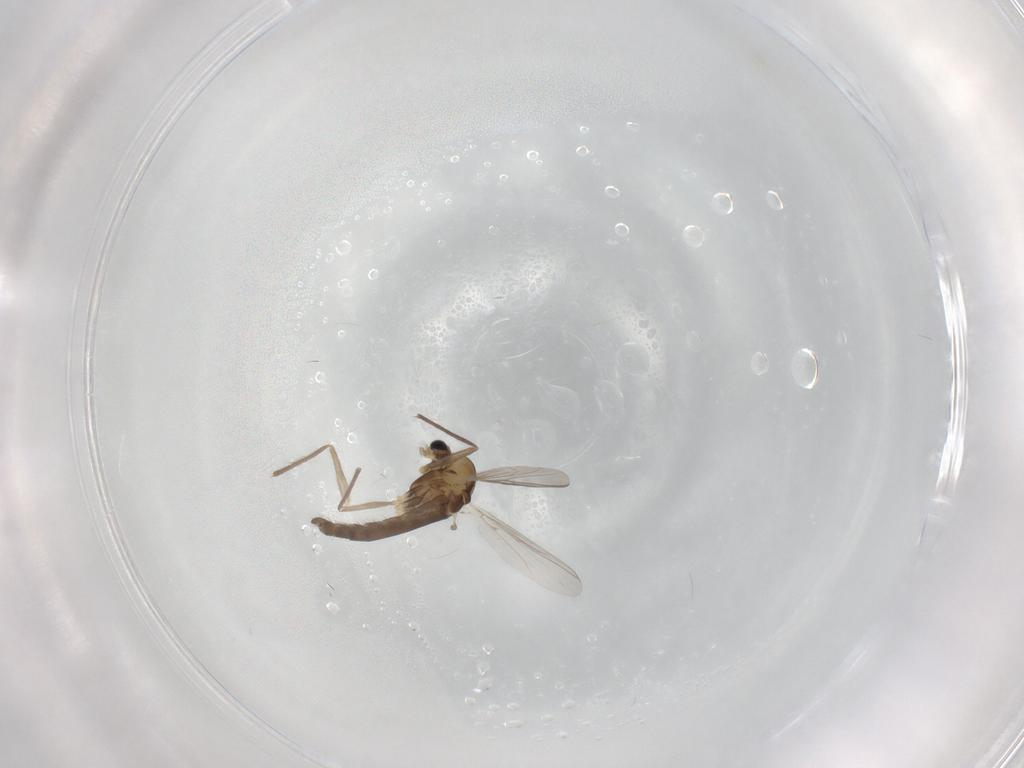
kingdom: Animalia
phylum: Arthropoda
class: Insecta
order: Diptera
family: Chironomidae
